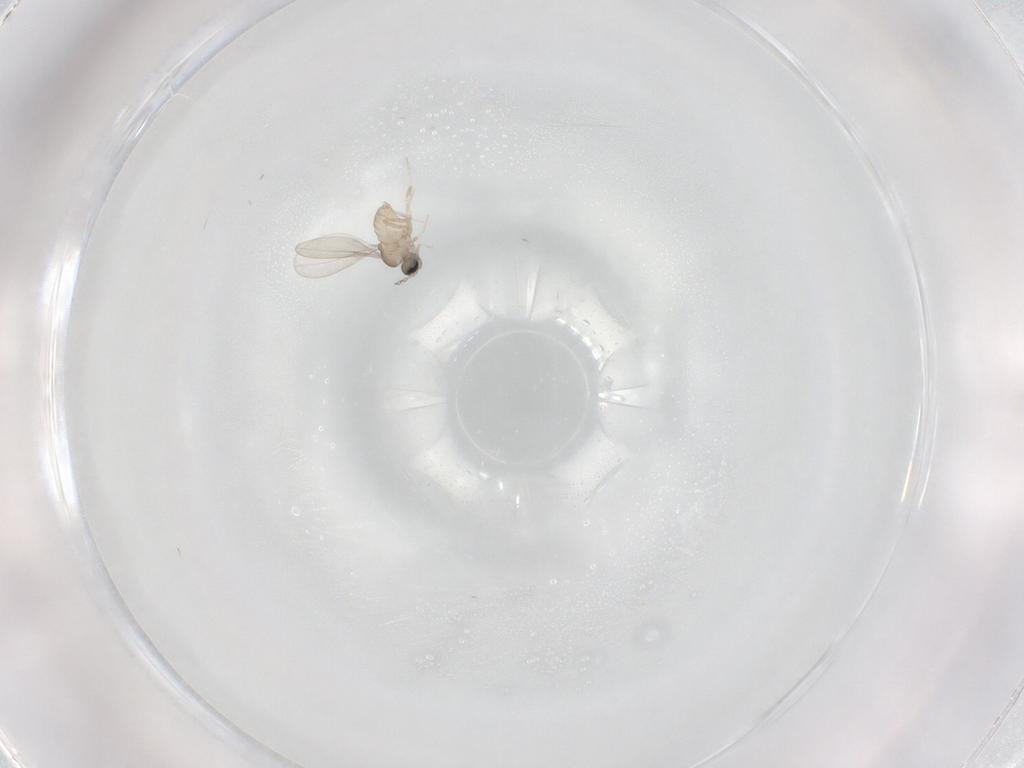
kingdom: Animalia
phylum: Arthropoda
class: Insecta
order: Diptera
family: Cecidomyiidae
